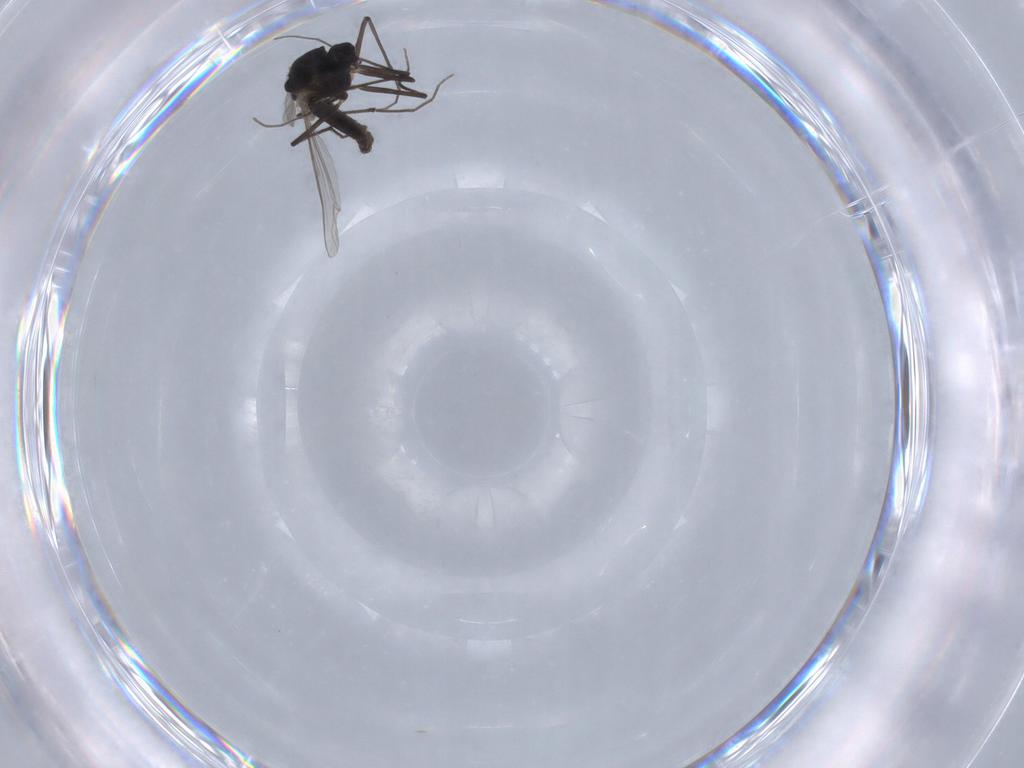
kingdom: Animalia
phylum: Arthropoda
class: Insecta
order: Diptera
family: Chironomidae
